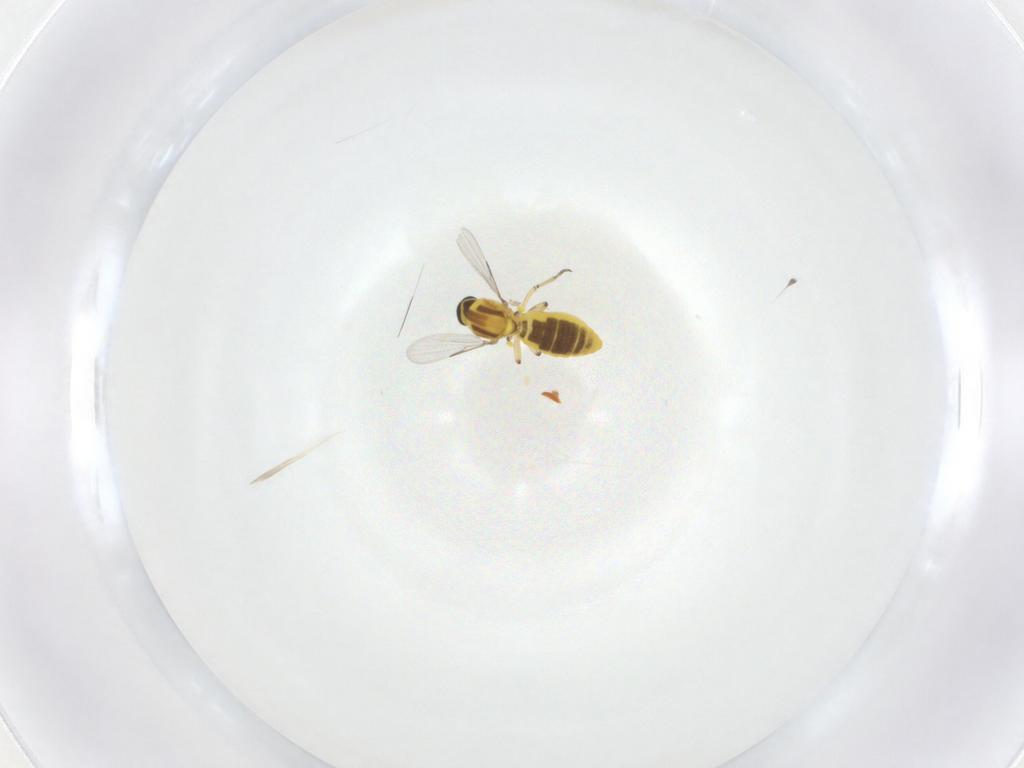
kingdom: Animalia
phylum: Arthropoda
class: Insecta
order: Diptera
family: Ceratopogonidae
